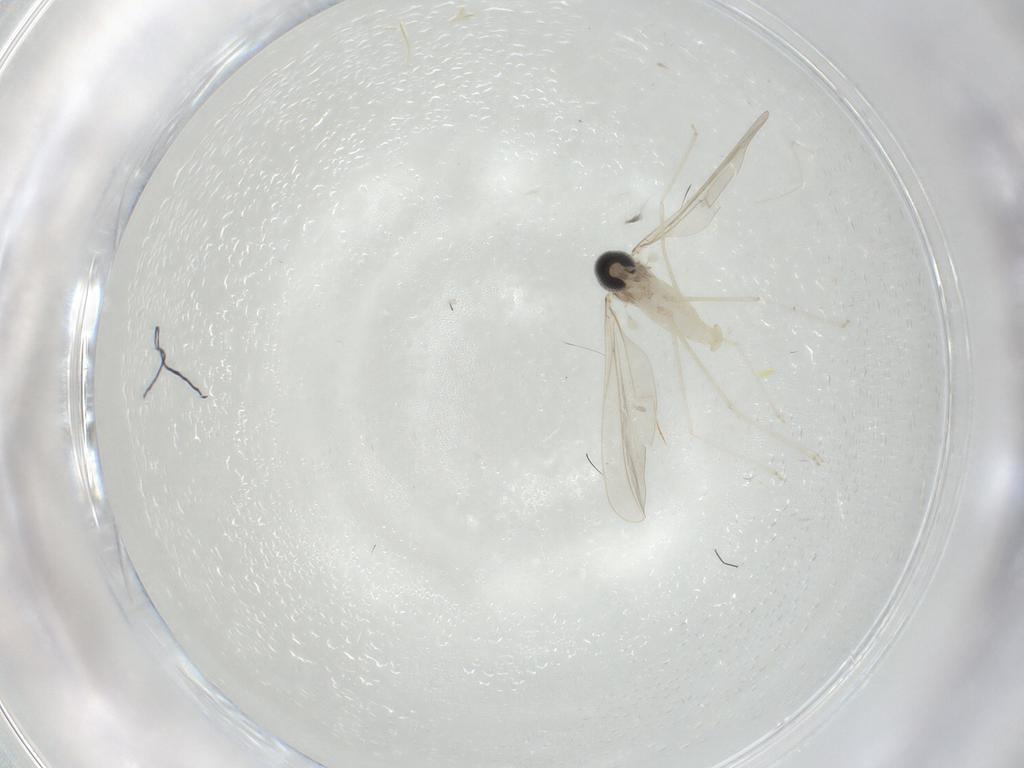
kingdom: Animalia
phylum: Arthropoda
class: Insecta
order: Diptera
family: Cecidomyiidae
